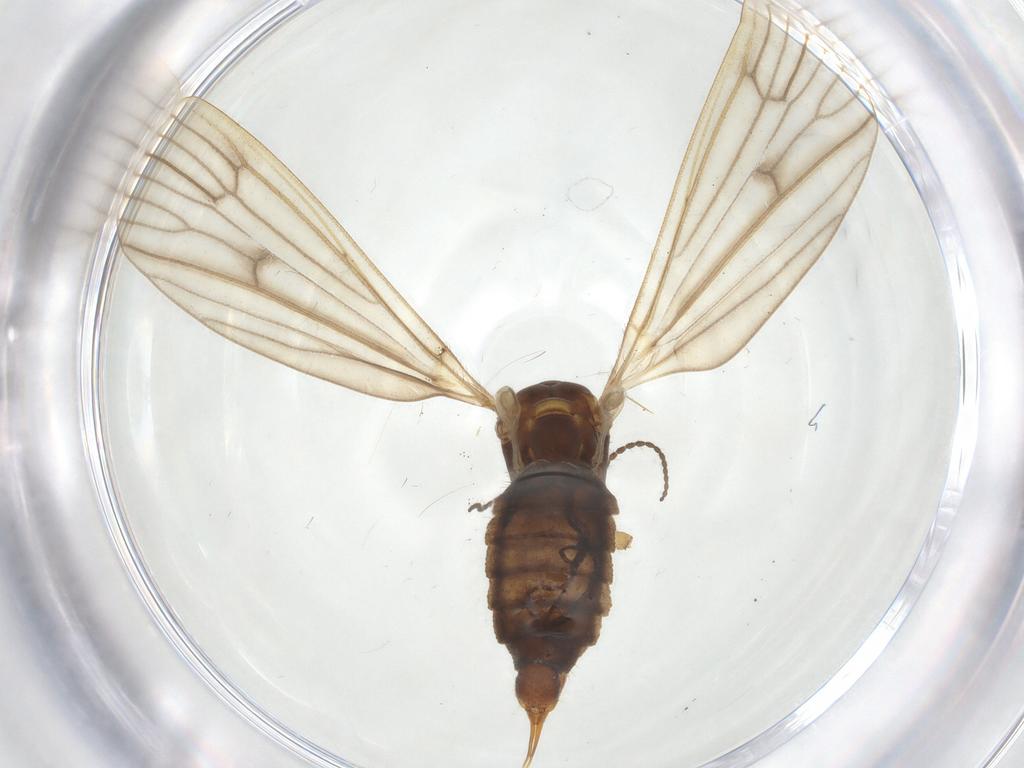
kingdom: Animalia
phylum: Arthropoda
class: Insecta
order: Diptera
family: Limoniidae
